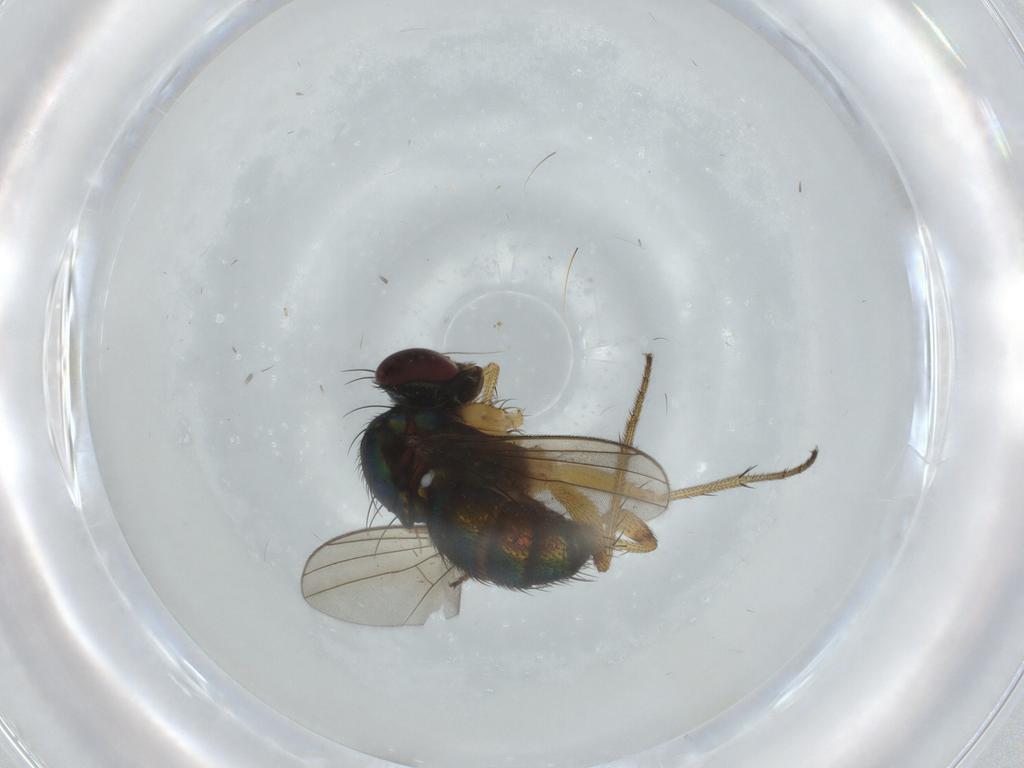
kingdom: Animalia
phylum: Arthropoda
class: Insecta
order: Diptera
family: Dolichopodidae
